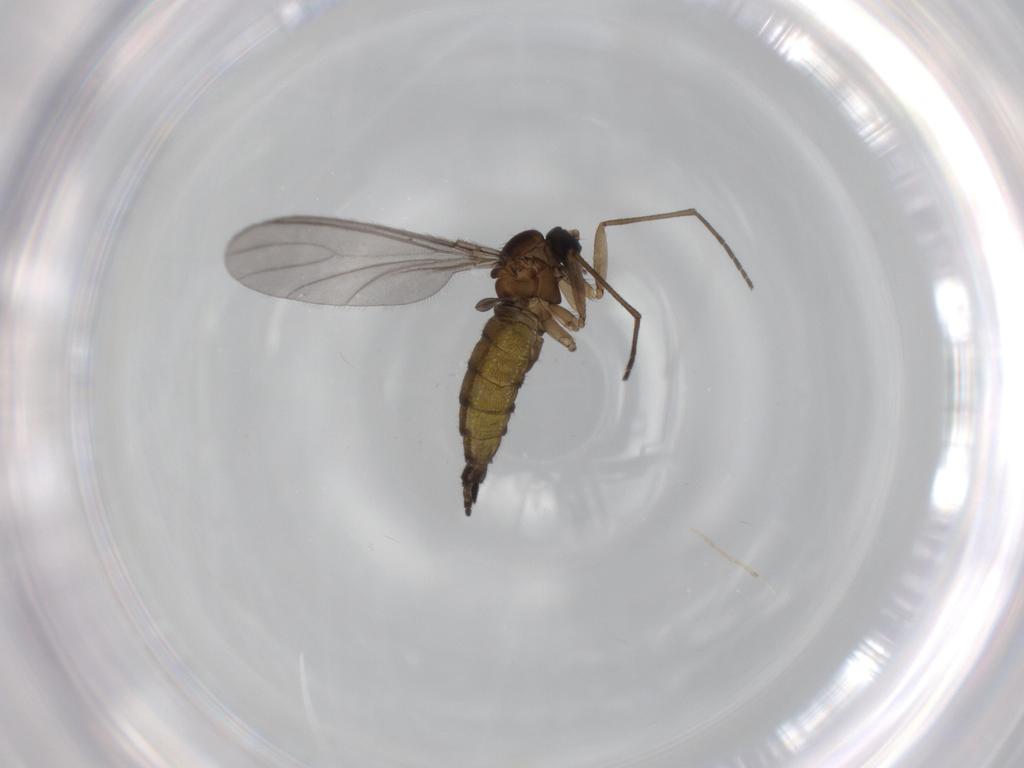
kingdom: Animalia
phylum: Arthropoda
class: Insecta
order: Diptera
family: Sciaridae
